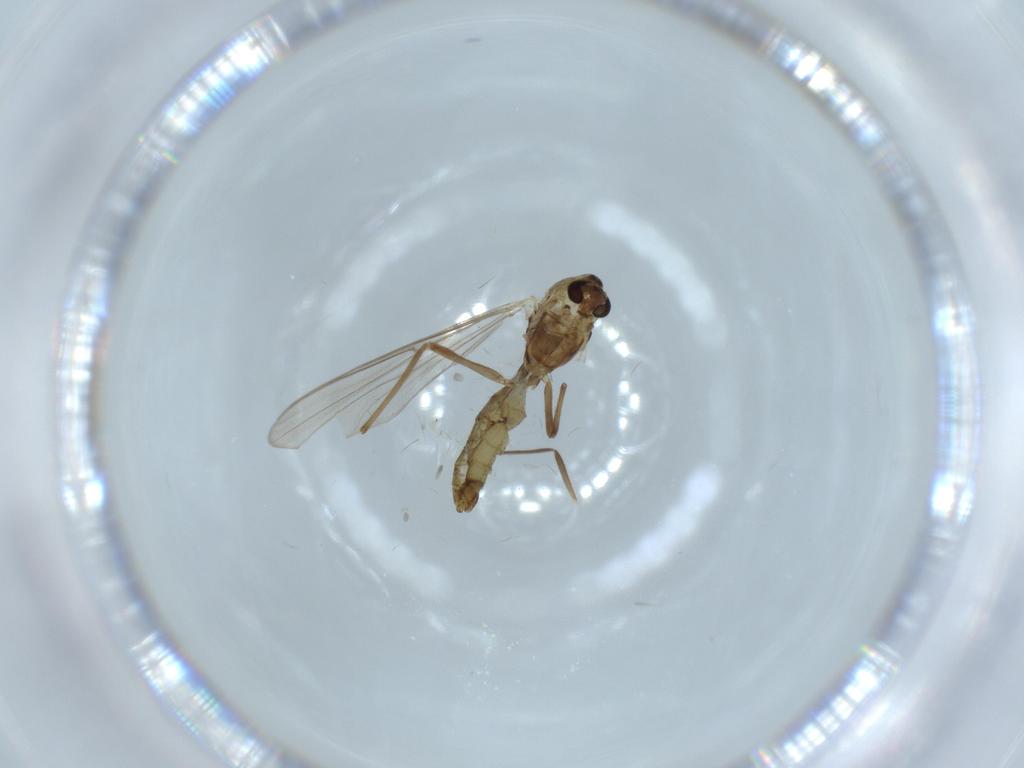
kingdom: Animalia
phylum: Arthropoda
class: Insecta
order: Diptera
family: Chironomidae
